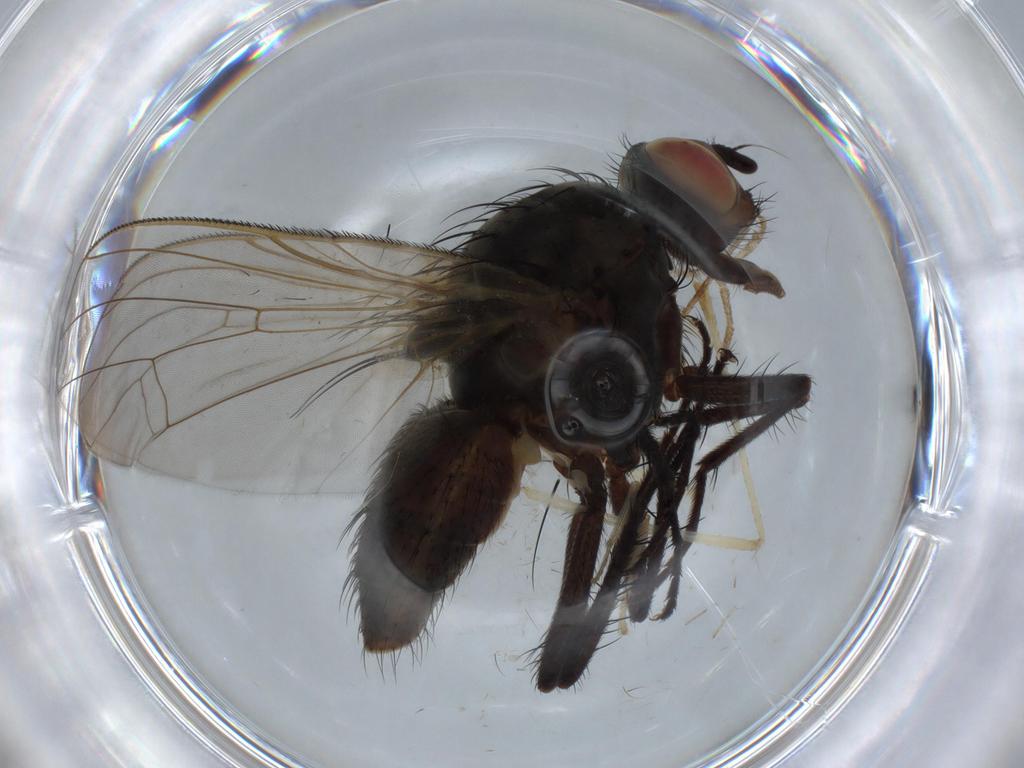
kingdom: Animalia
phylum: Arthropoda
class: Insecta
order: Diptera
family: Anthomyiidae
